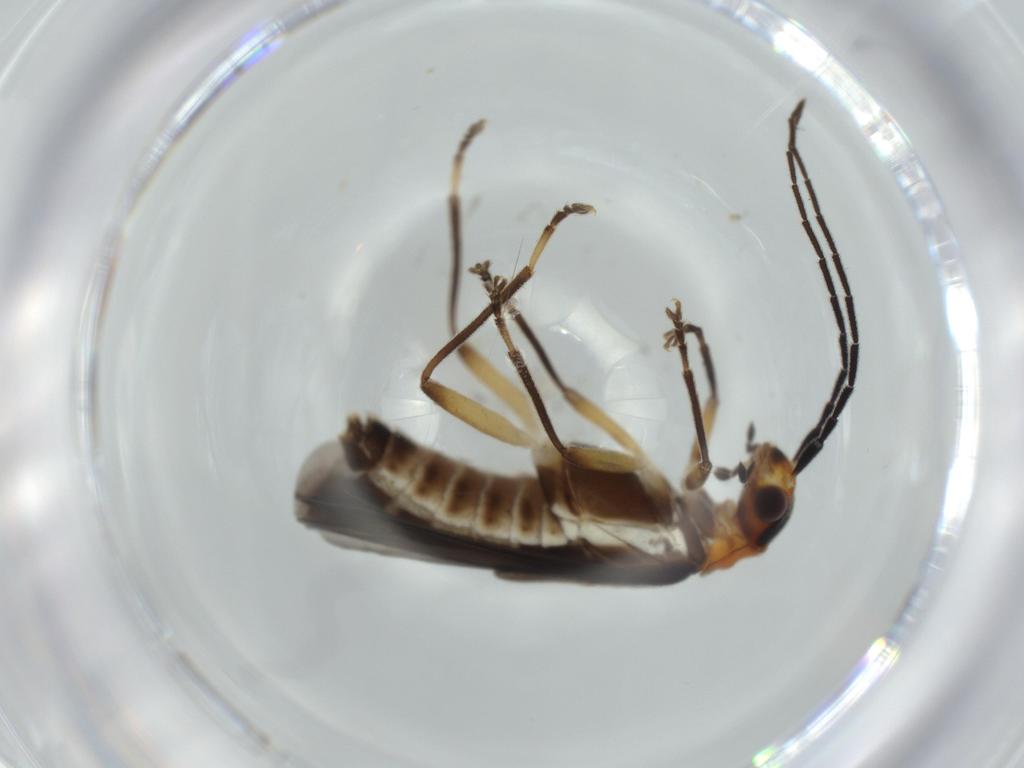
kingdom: Animalia
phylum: Arthropoda
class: Insecta
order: Coleoptera
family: Cantharidae
